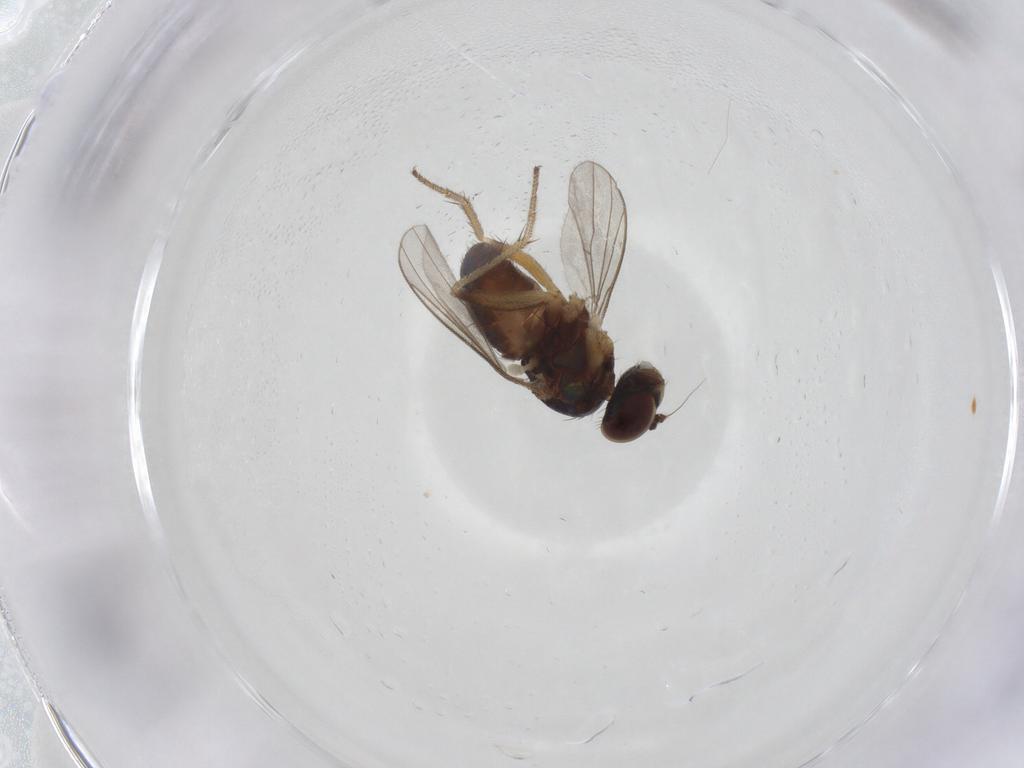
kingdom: Animalia
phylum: Arthropoda
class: Insecta
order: Diptera
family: Dolichopodidae
